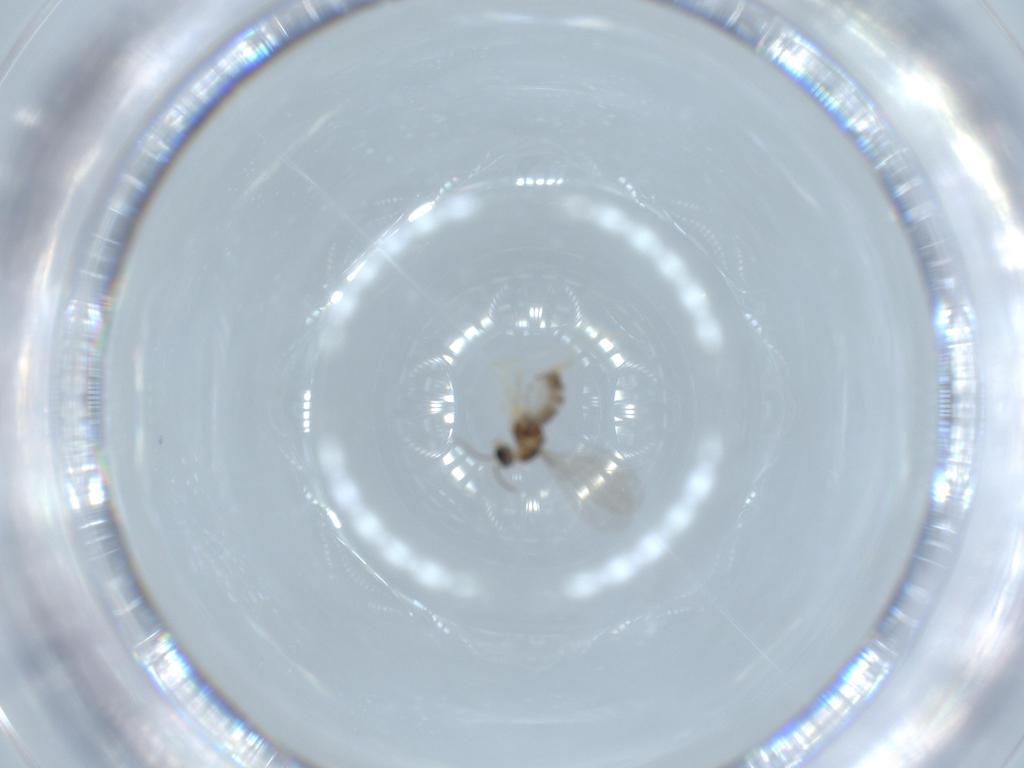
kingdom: Animalia
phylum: Arthropoda
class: Insecta
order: Diptera
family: Cecidomyiidae
